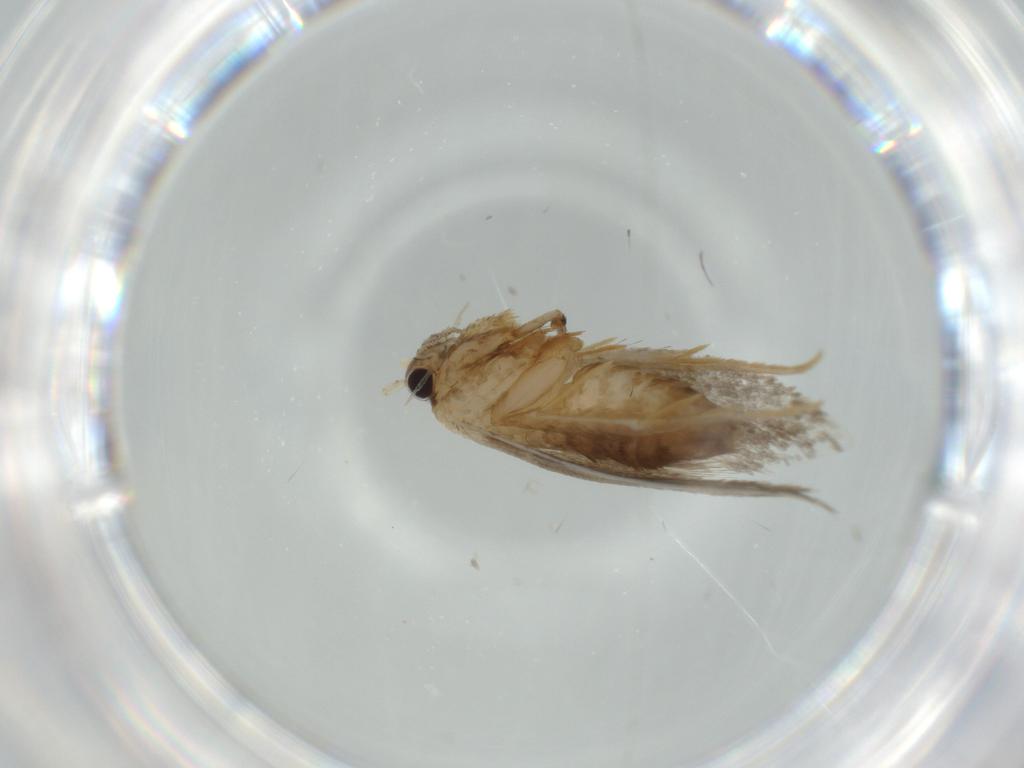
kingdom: Animalia
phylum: Arthropoda
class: Insecta
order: Lepidoptera
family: Tineidae
